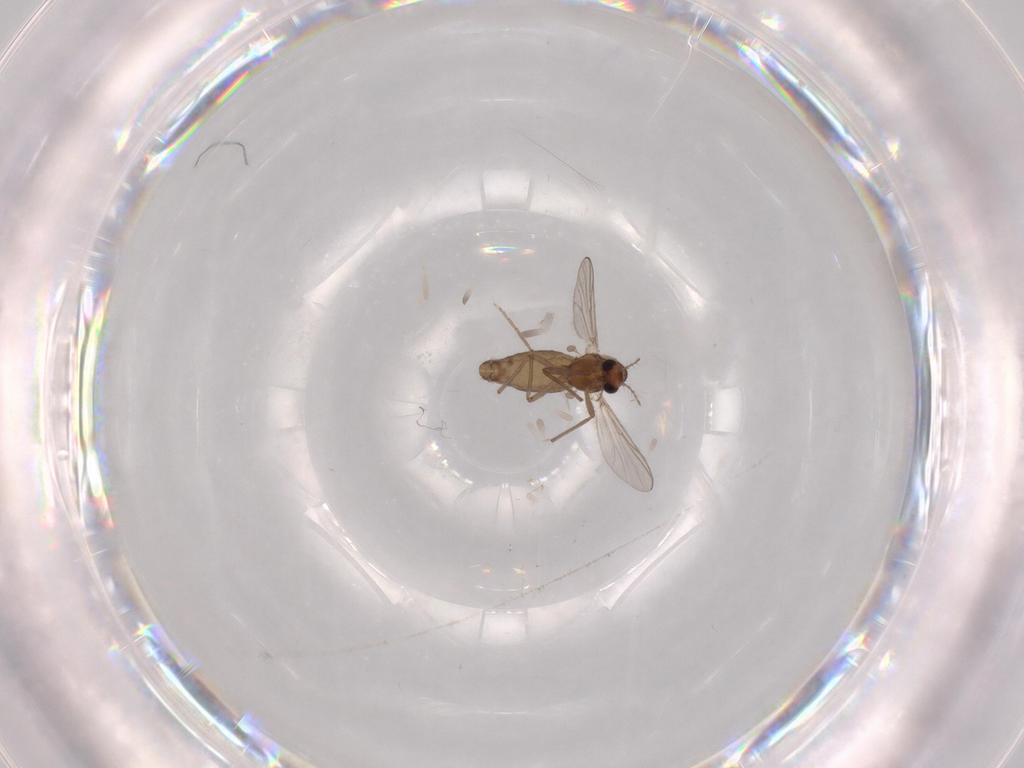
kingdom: Animalia
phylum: Arthropoda
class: Insecta
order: Diptera
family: Chironomidae
